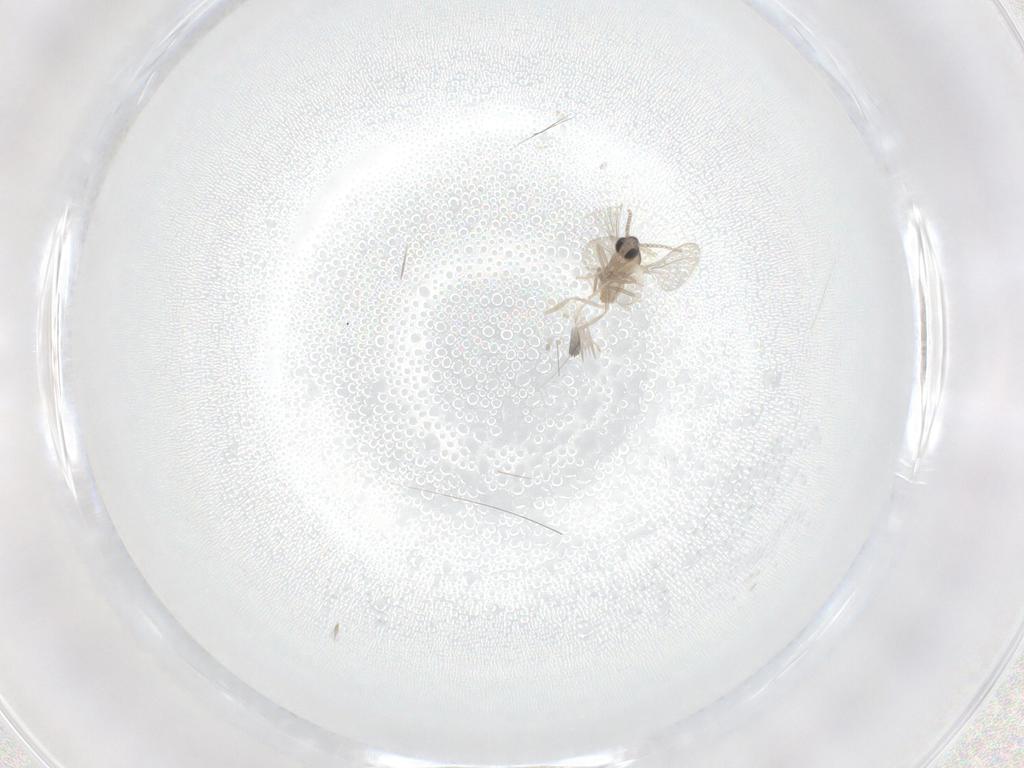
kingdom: Animalia
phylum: Arthropoda
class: Insecta
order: Diptera
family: Cecidomyiidae
